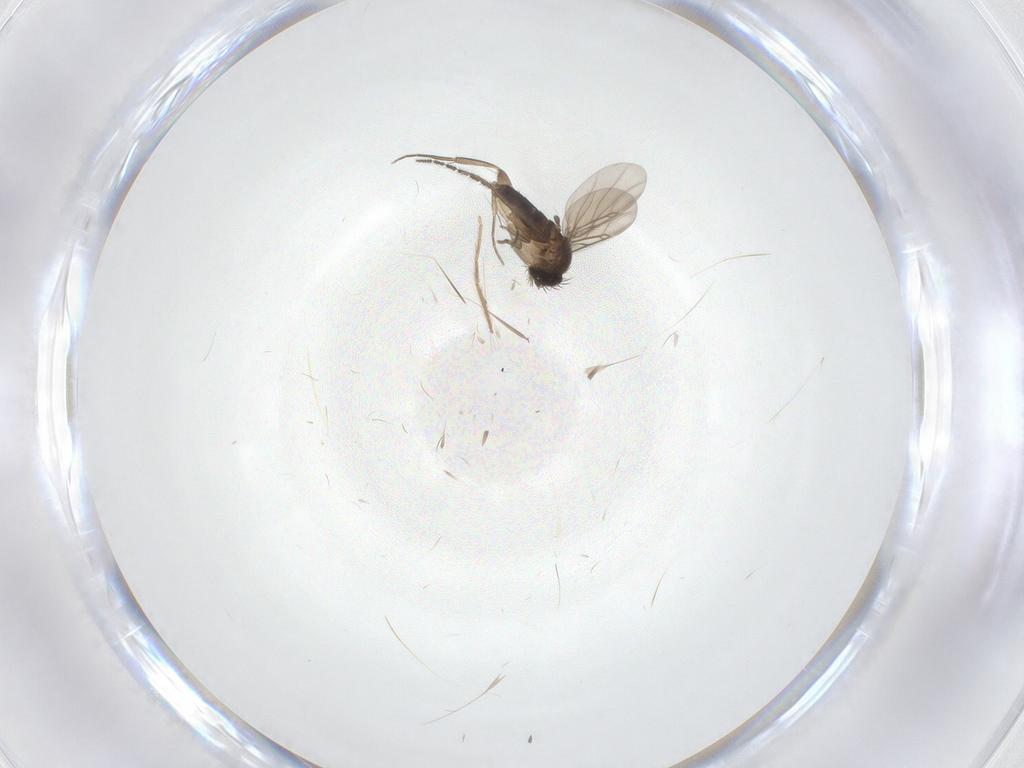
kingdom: Animalia
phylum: Arthropoda
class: Insecta
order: Diptera
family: Phoridae
